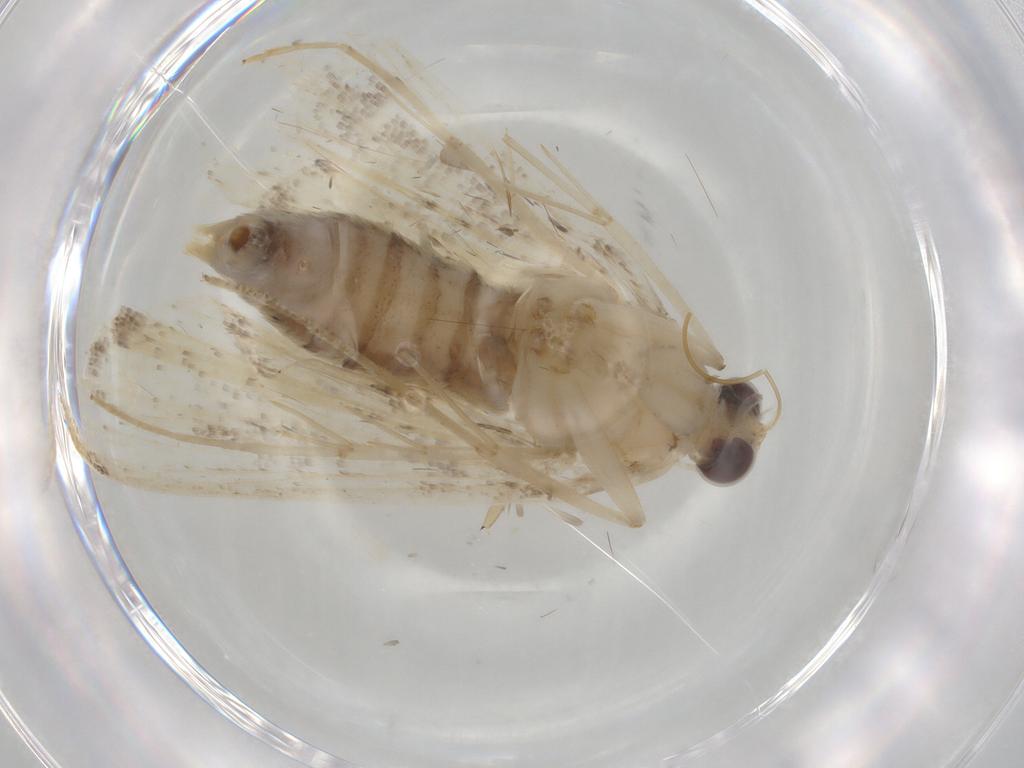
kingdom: Animalia
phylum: Arthropoda
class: Insecta
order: Lepidoptera
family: Crambidae
